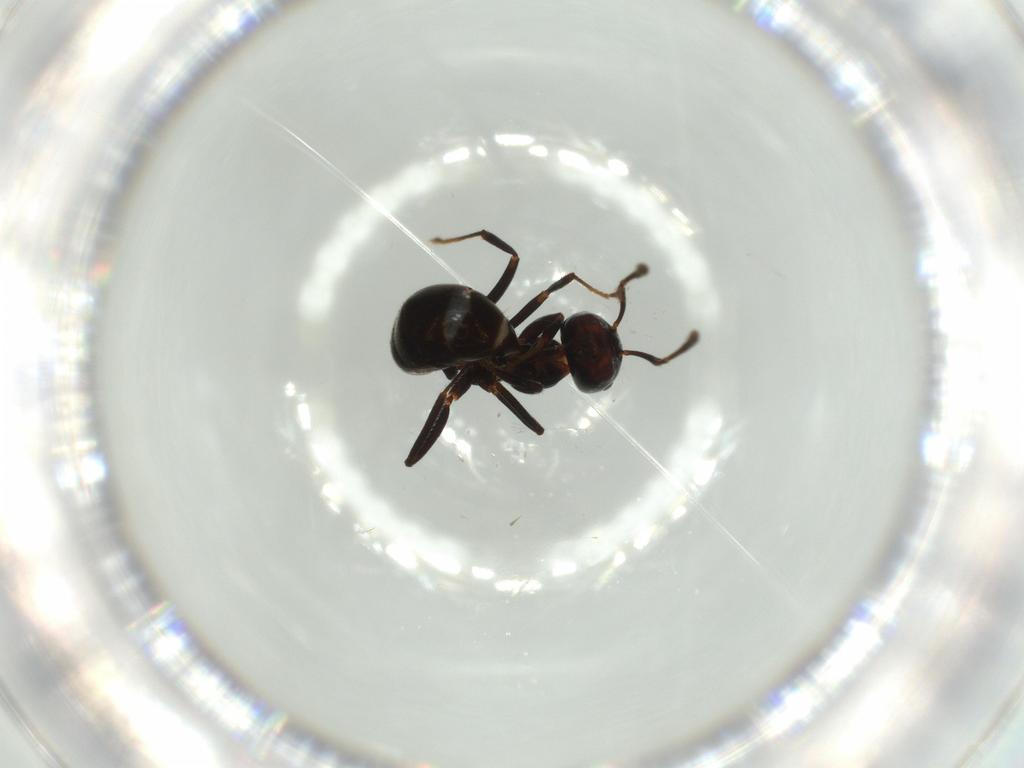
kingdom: Animalia
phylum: Arthropoda
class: Insecta
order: Hymenoptera
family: Formicidae
